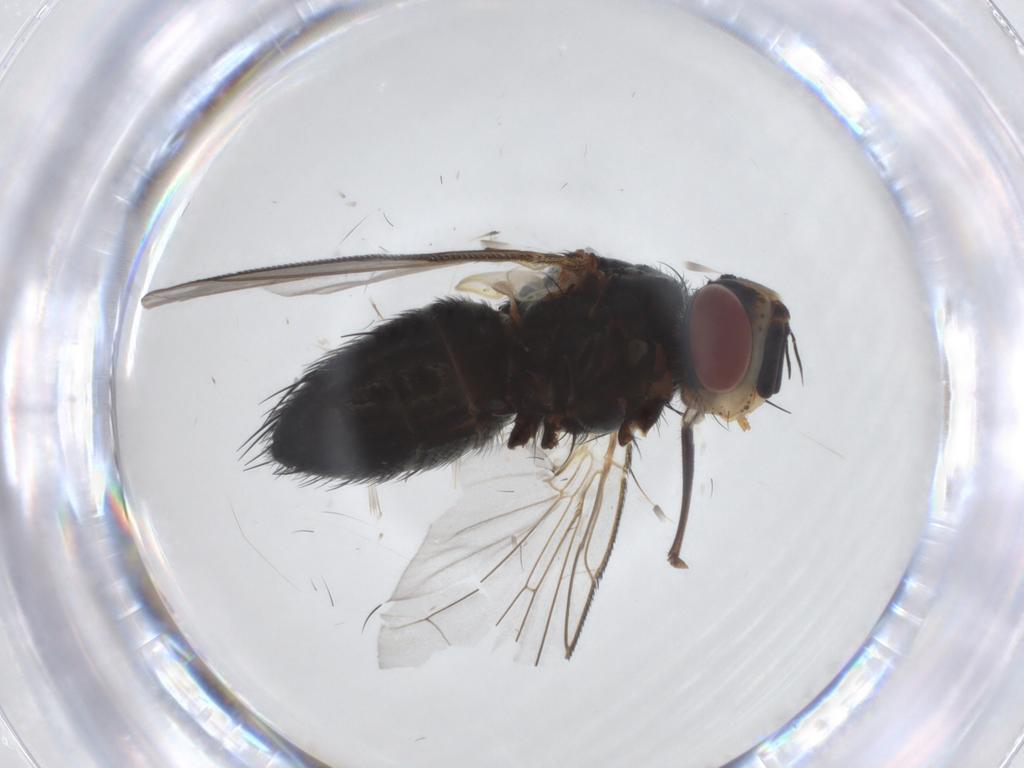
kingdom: Animalia
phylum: Arthropoda
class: Insecta
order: Diptera
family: Tachinidae
